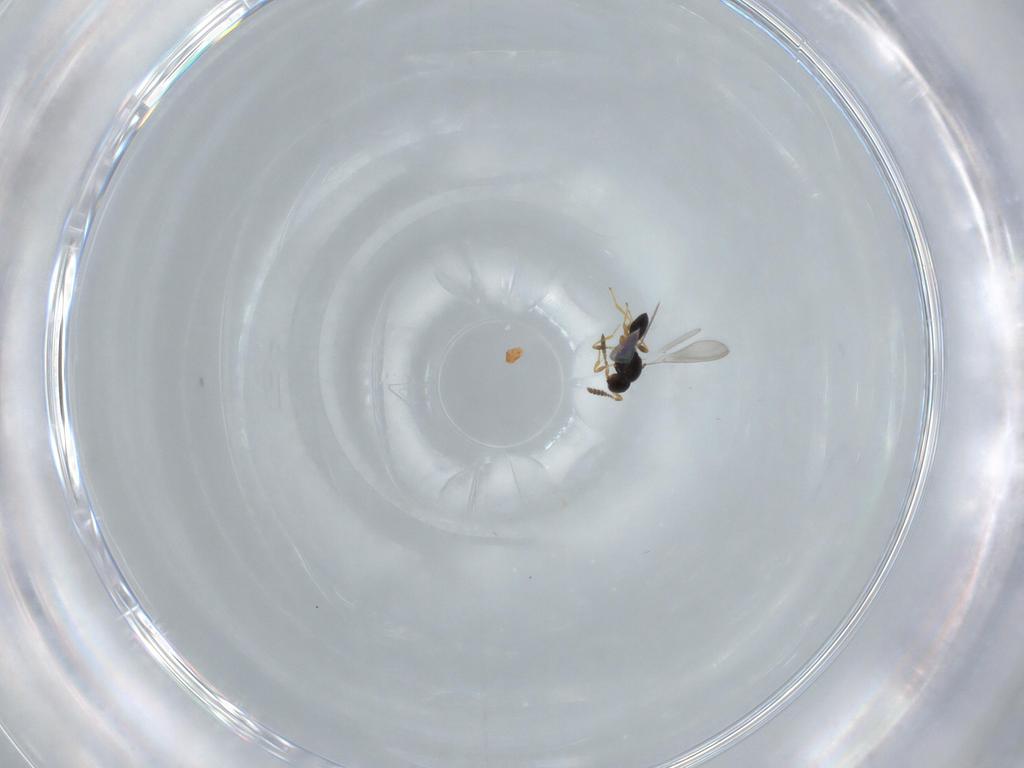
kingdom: Animalia
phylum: Arthropoda
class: Insecta
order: Hymenoptera
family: Platygastridae
